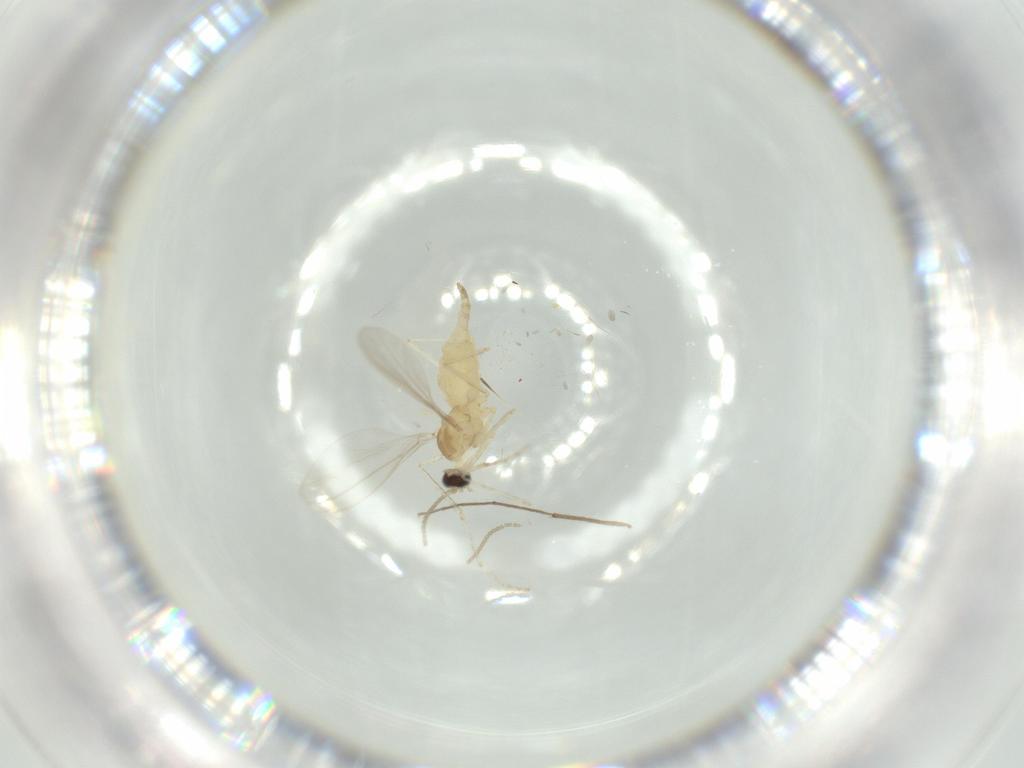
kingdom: Animalia
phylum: Arthropoda
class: Insecta
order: Diptera
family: Cecidomyiidae
